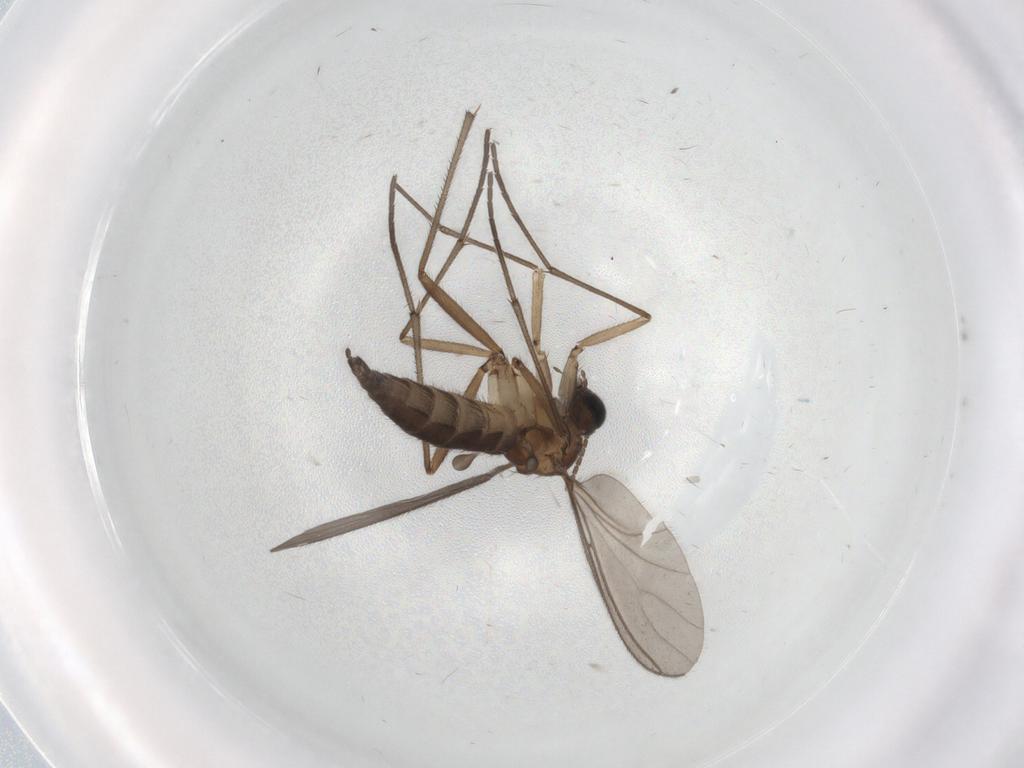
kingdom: Animalia
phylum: Arthropoda
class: Insecta
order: Diptera
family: Sciaridae
